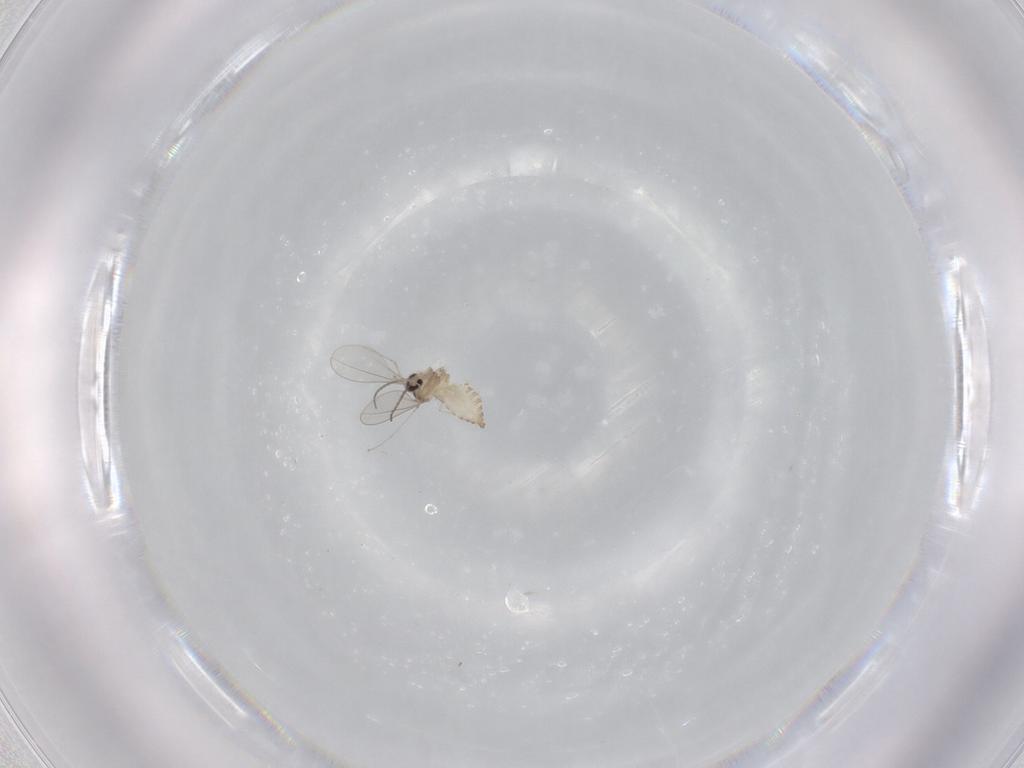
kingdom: Animalia
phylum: Arthropoda
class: Insecta
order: Diptera
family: Cecidomyiidae
